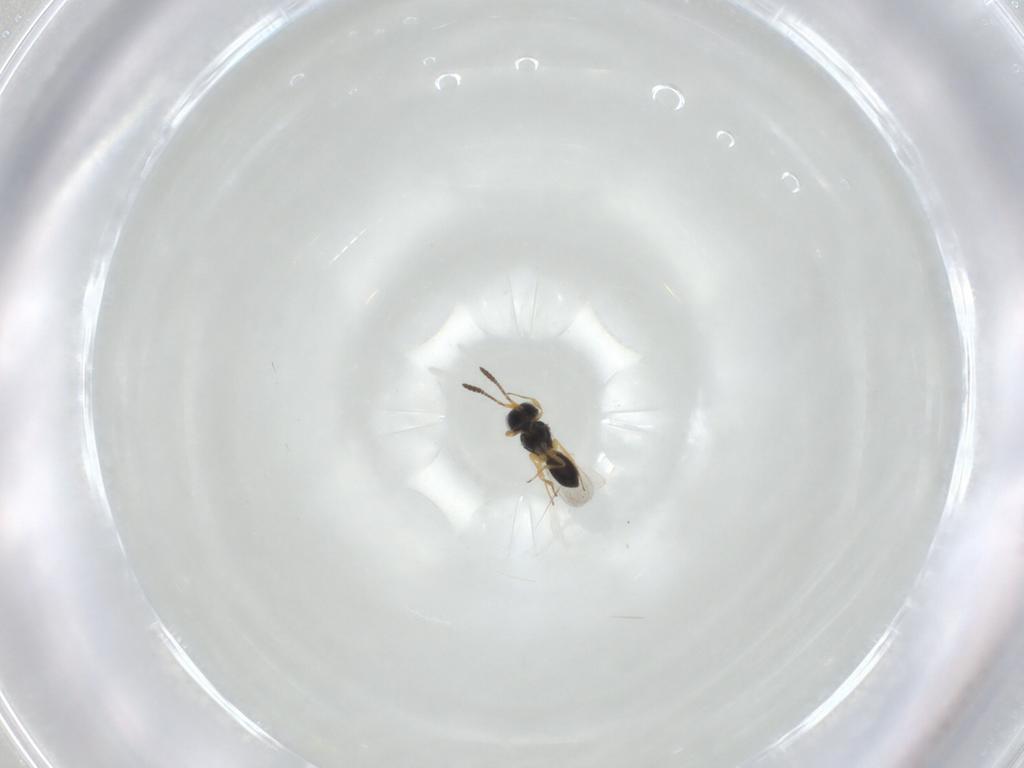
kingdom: Animalia
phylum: Arthropoda
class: Insecta
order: Hymenoptera
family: Scelionidae
